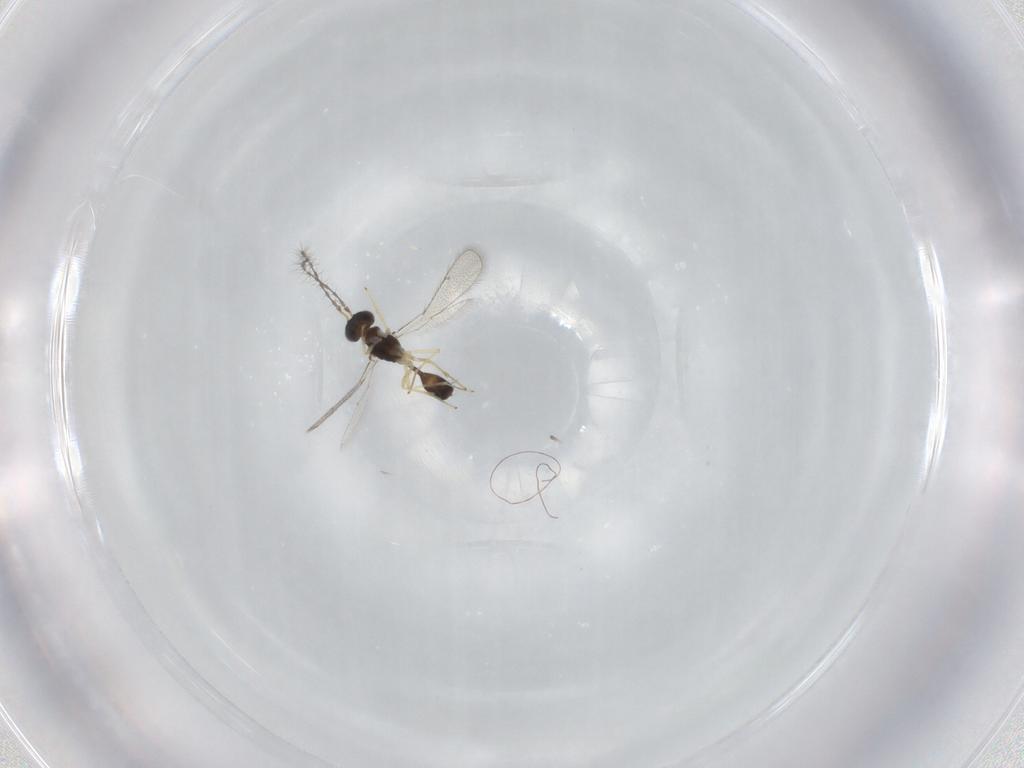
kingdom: Animalia
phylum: Arthropoda
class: Insecta
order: Hymenoptera
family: Diparidae
